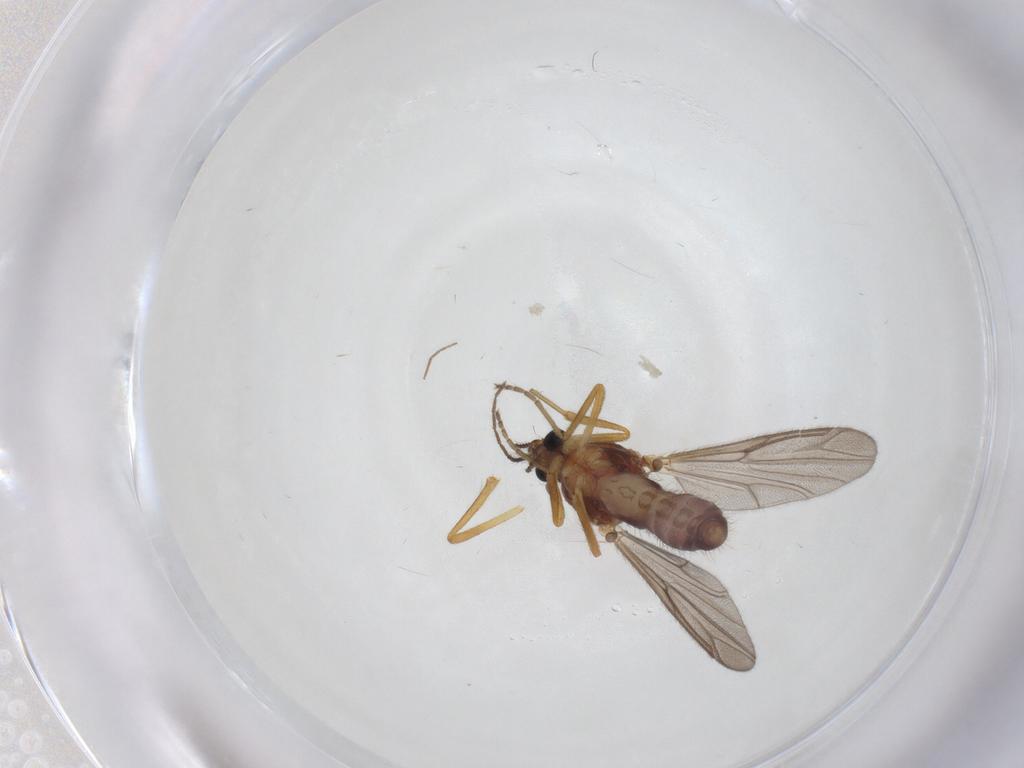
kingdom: Animalia
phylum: Arthropoda
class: Insecta
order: Diptera
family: Ceratopogonidae
